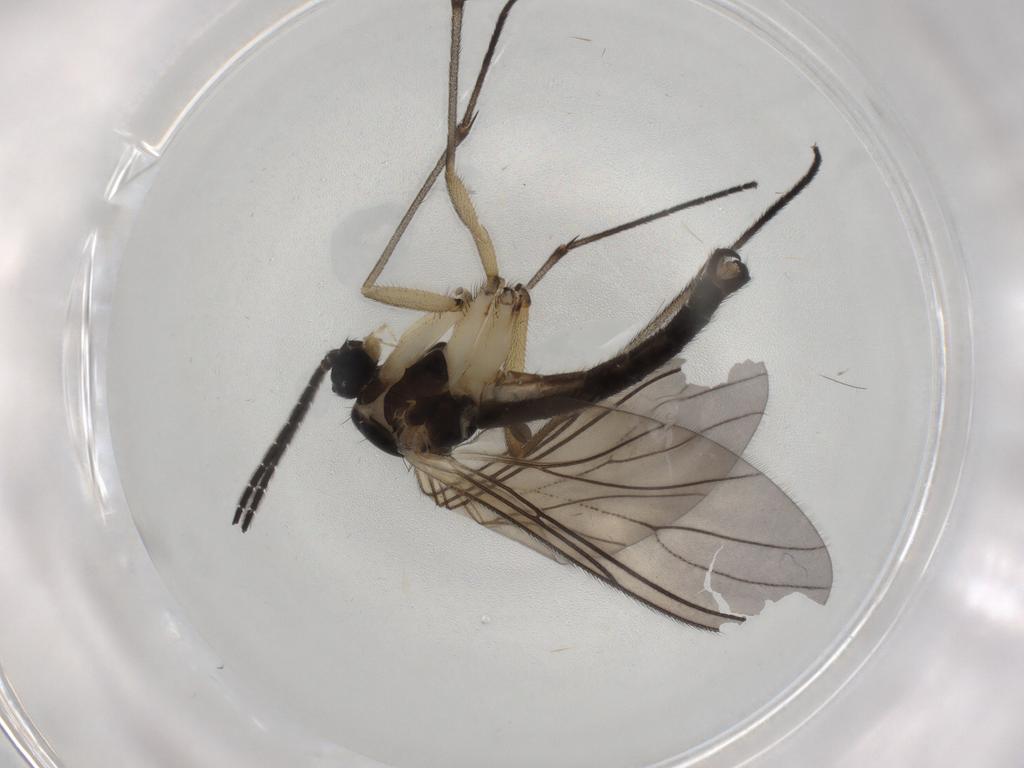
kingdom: Animalia
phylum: Arthropoda
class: Insecta
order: Diptera
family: Sciaridae
